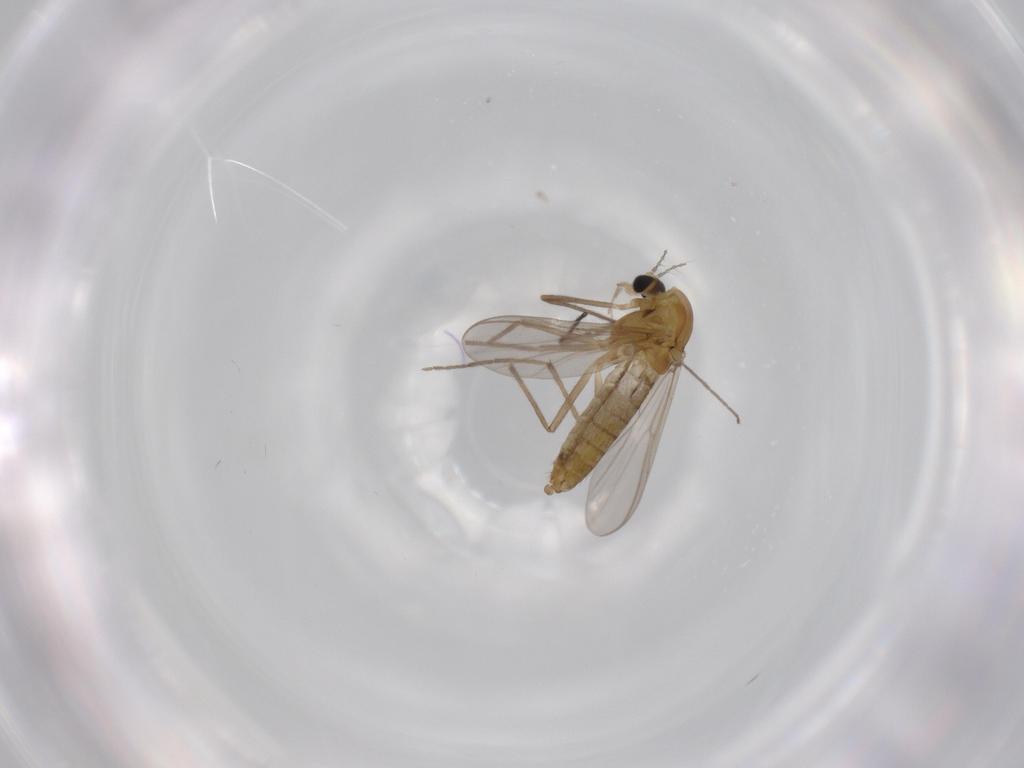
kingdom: Animalia
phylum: Arthropoda
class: Insecta
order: Diptera
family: Chironomidae
